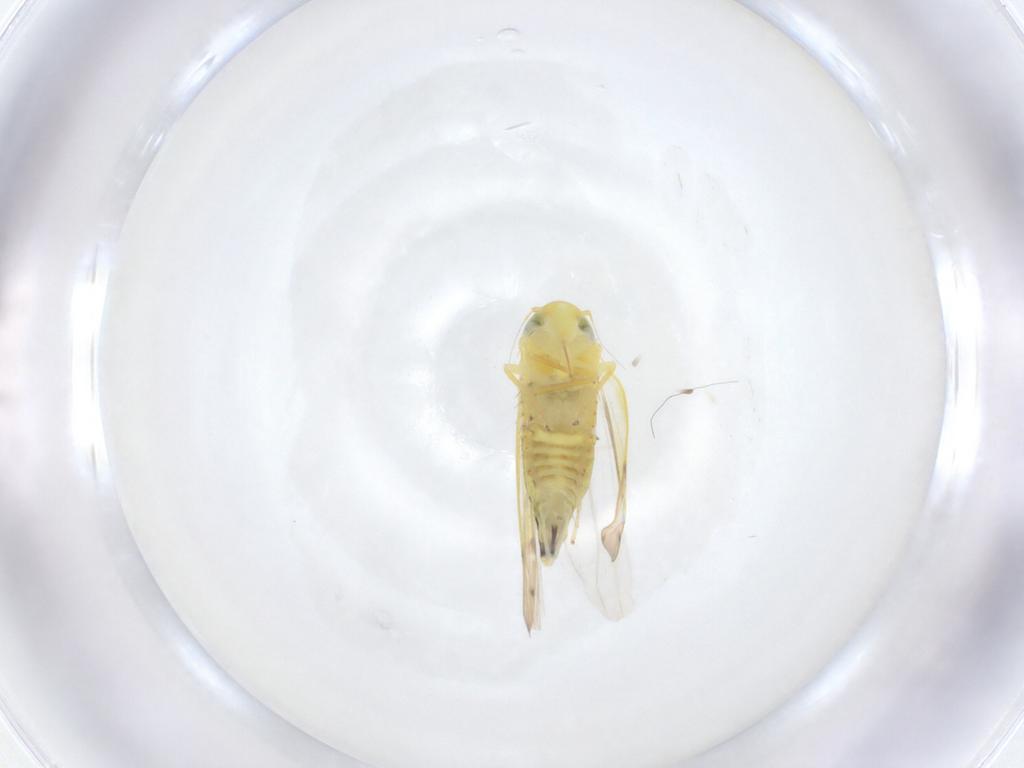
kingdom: Animalia
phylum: Arthropoda
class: Insecta
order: Hemiptera
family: Cicadellidae
